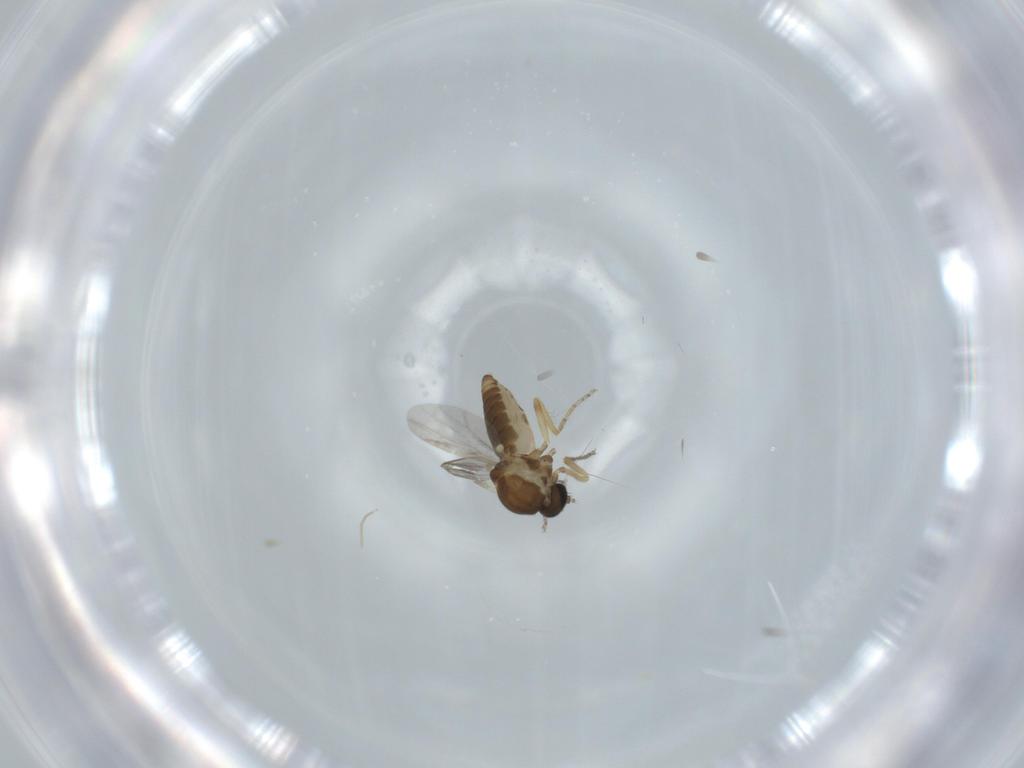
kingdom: Animalia
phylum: Arthropoda
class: Insecta
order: Diptera
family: Ceratopogonidae
